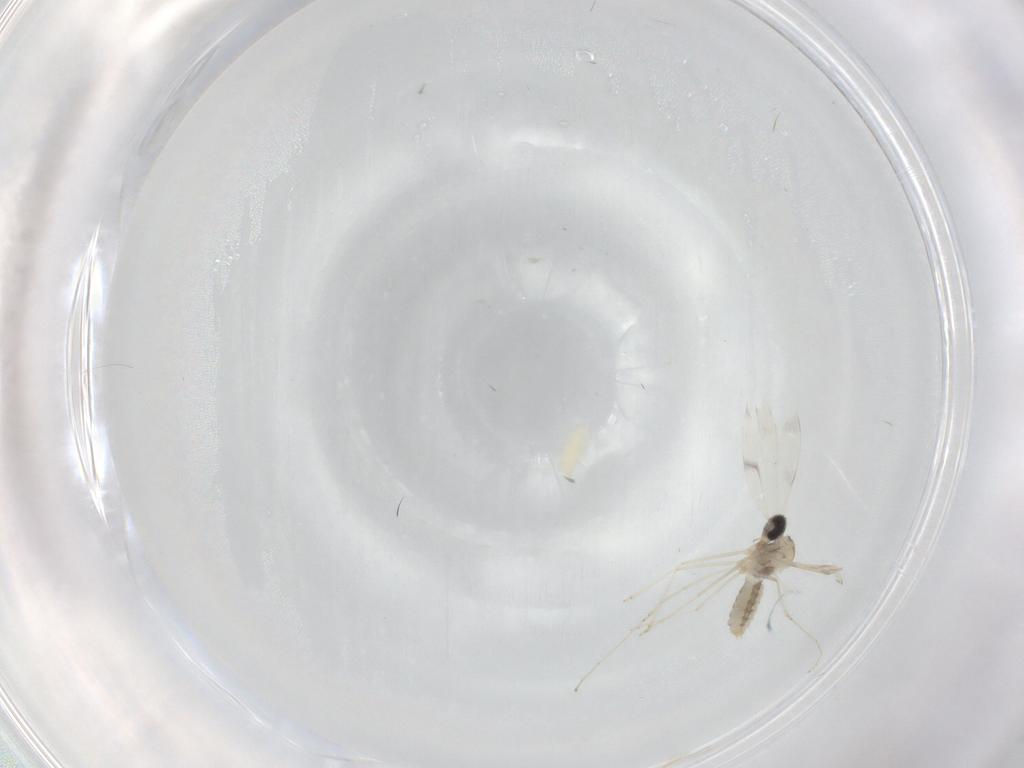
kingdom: Animalia
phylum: Arthropoda
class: Insecta
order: Diptera
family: Cecidomyiidae
